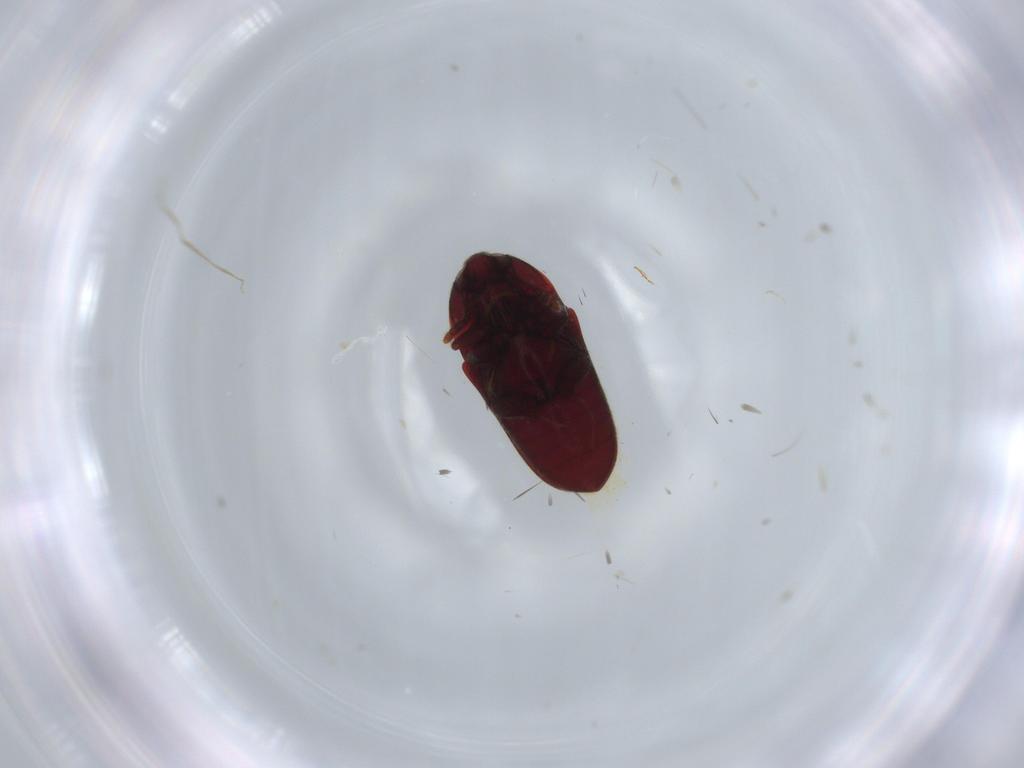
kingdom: Animalia
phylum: Arthropoda
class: Insecta
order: Coleoptera
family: Throscidae
